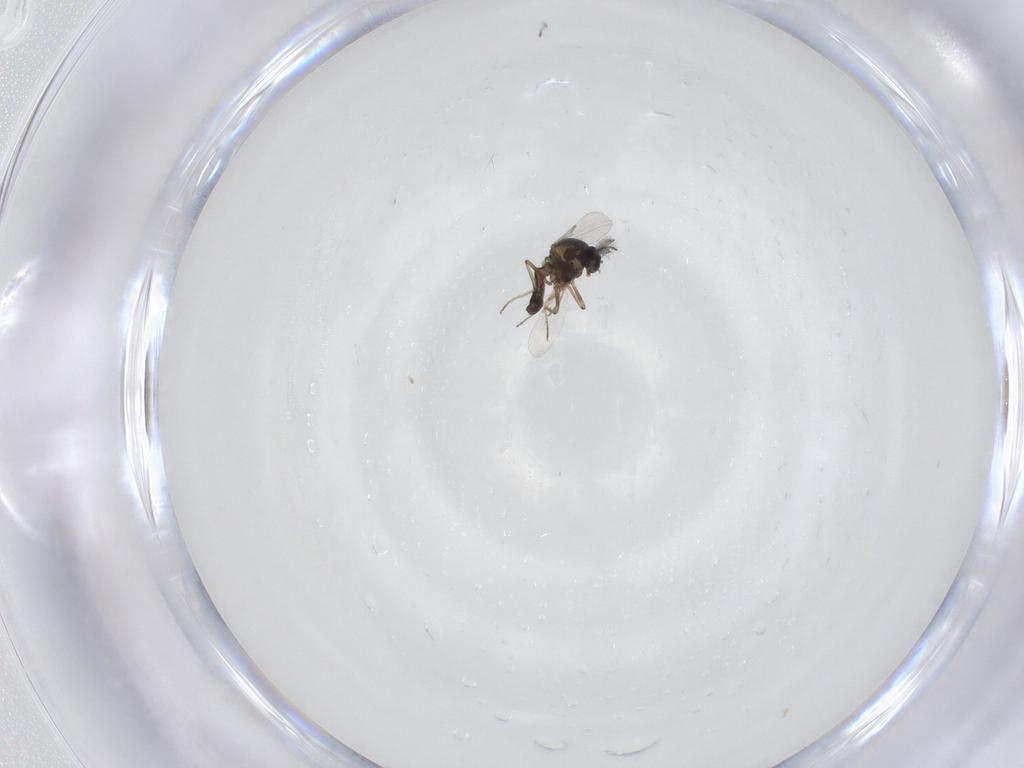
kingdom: Animalia
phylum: Arthropoda
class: Insecta
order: Diptera
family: Ceratopogonidae
